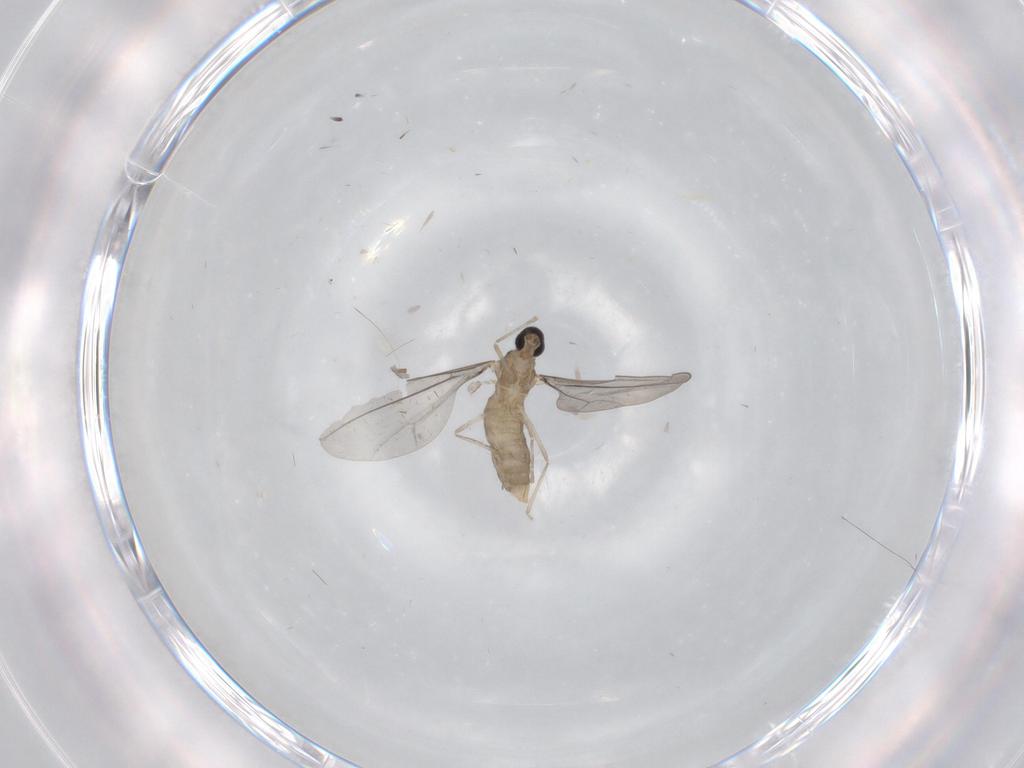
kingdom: Animalia
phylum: Arthropoda
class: Insecta
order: Diptera
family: Cecidomyiidae
